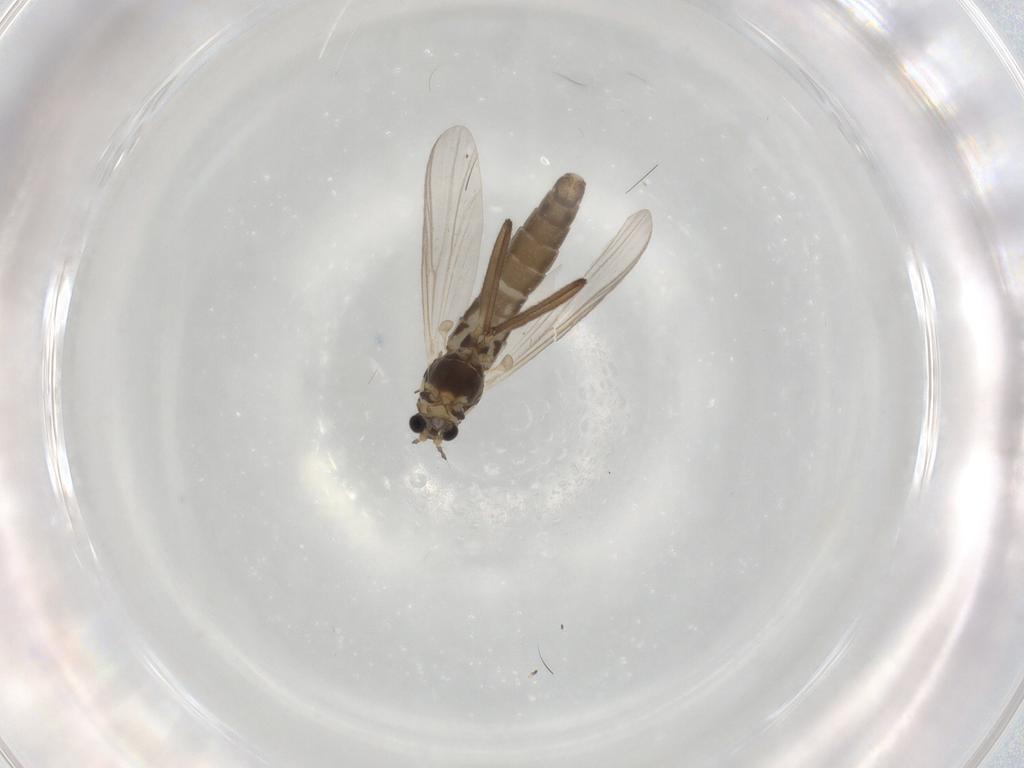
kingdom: Animalia
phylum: Arthropoda
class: Insecta
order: Diptera
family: Chironomidae
